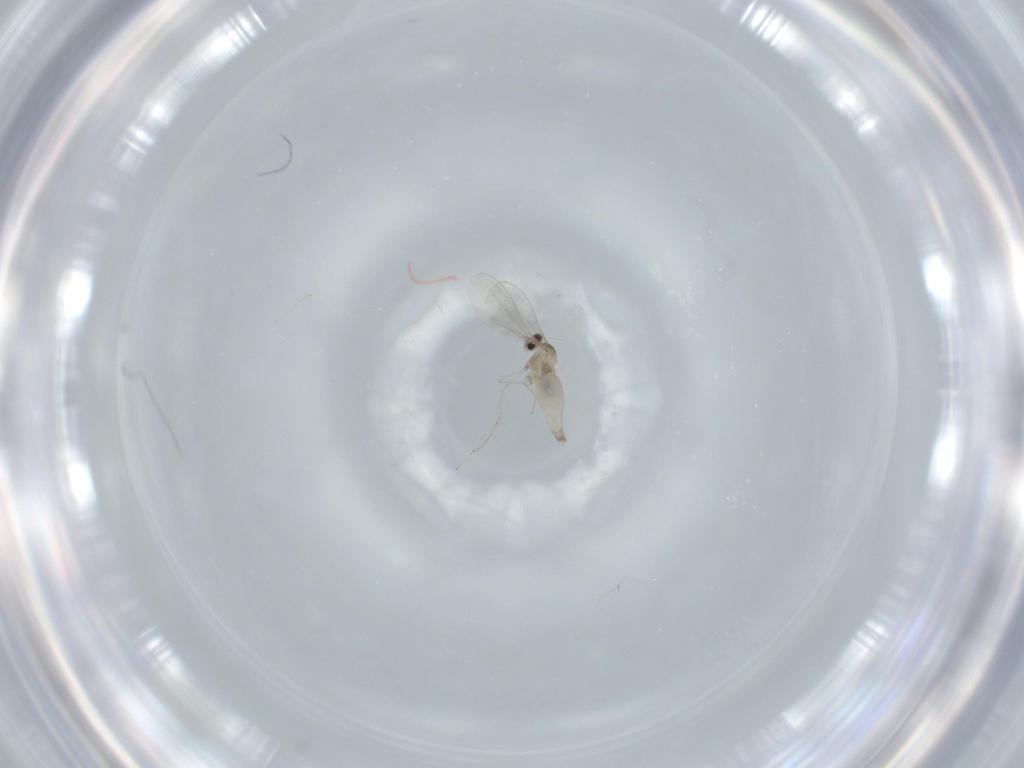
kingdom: Animalia
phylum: Arthropoda
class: Insecta
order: Diptera
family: Cecidomyiidae
